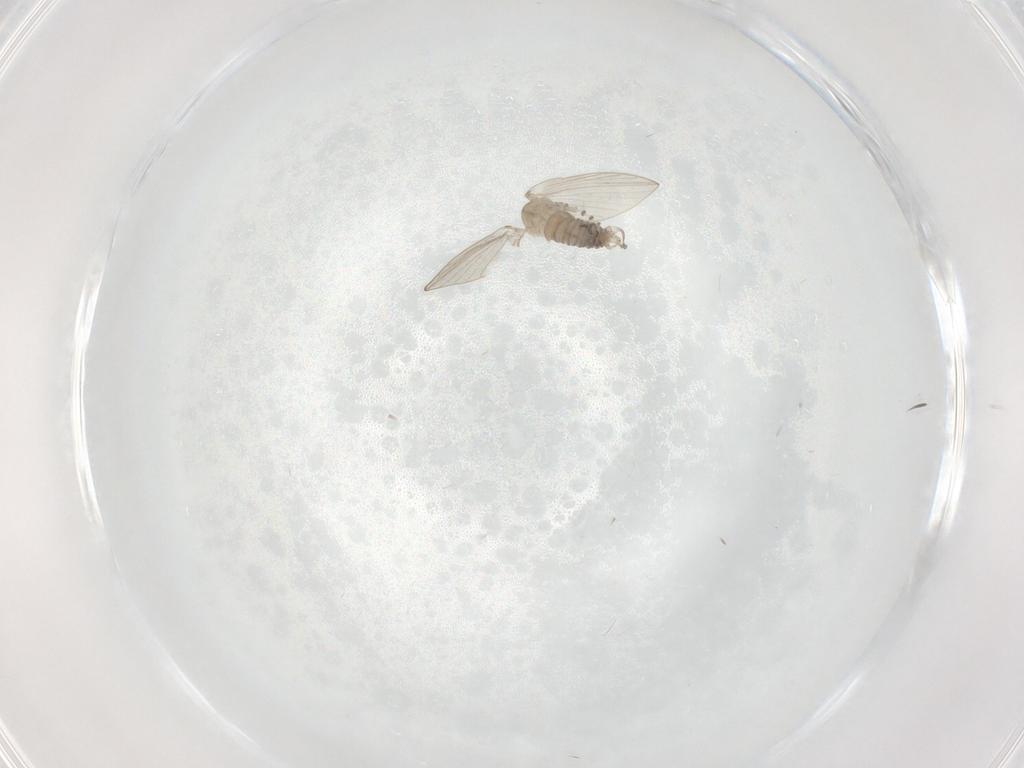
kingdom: Animalia
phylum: Arthropoda
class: Insecta
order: Diptera
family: Psychodidae
